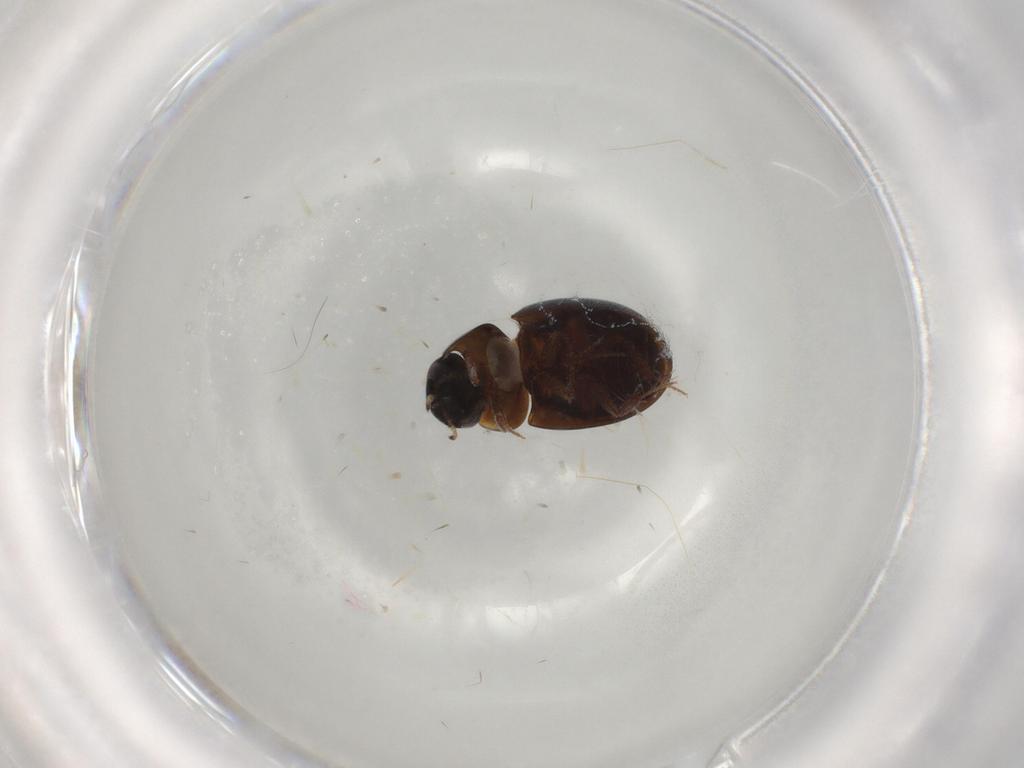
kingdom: Animalia
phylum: Arthropoda
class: Insecta
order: Coleoptera
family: Hydrophilidae
